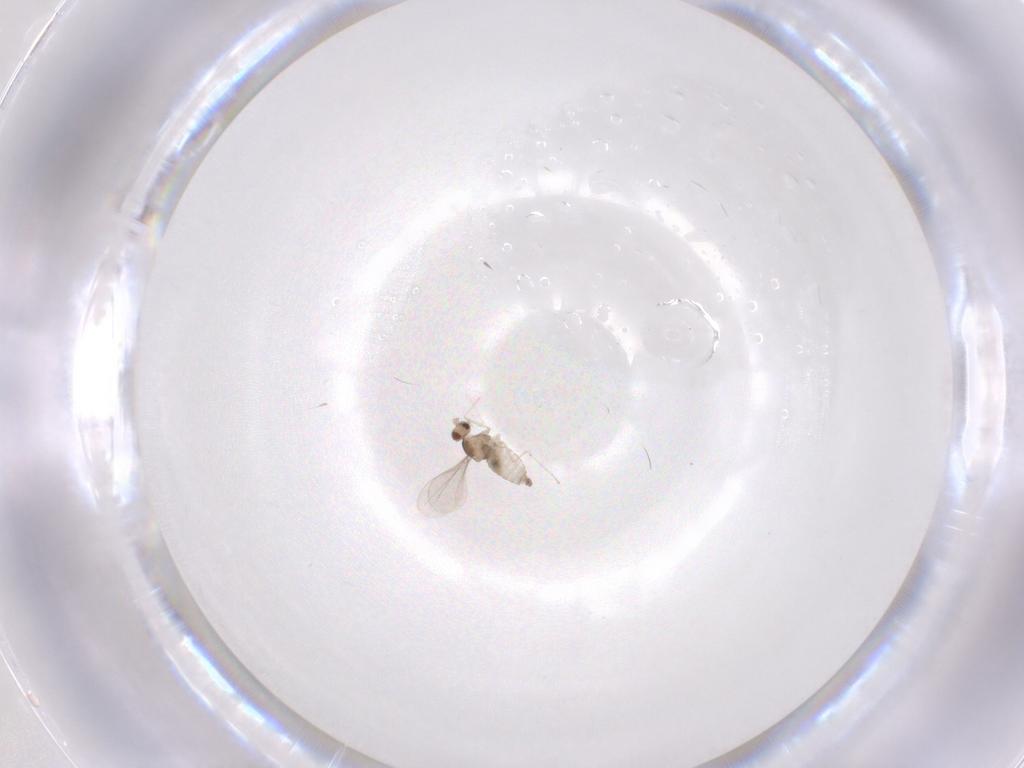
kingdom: Animalia
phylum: Arthropoda
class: Insecta
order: Diptera
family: Cecidomyiidae
